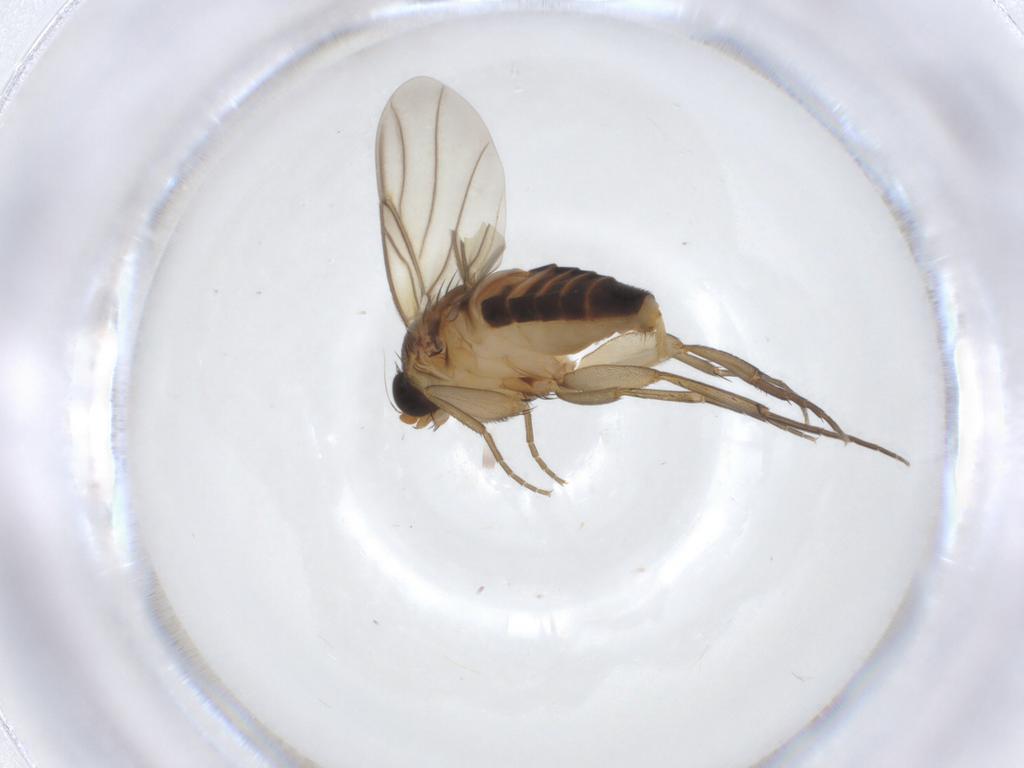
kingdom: Animalia
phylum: Arthropoda
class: Insecta
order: Diptera
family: Phoridae
